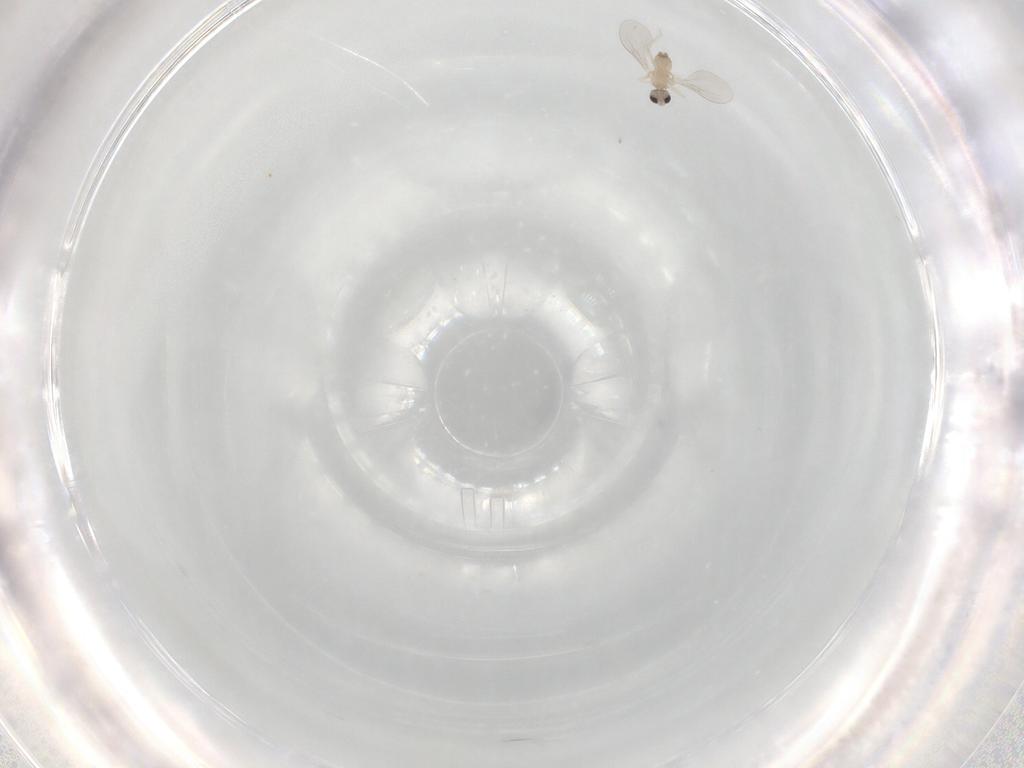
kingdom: Animalia
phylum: Arthropoda
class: Insecta
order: Diptera
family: Cecidomyiidae
